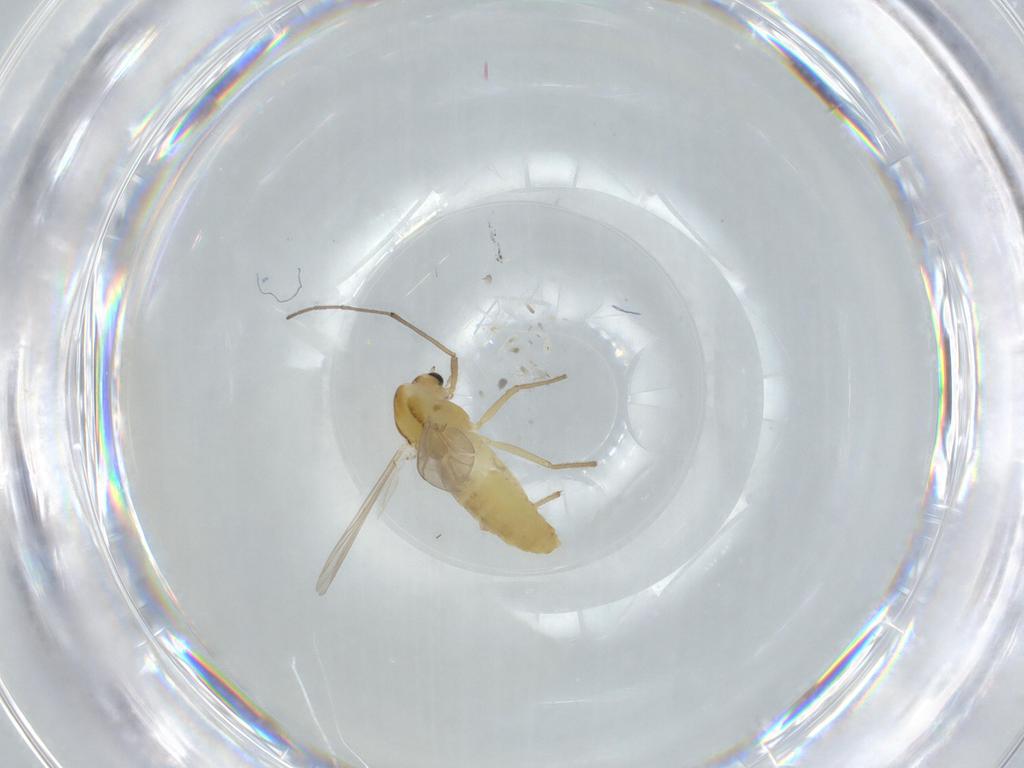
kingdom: Animalia
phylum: Arthropoda
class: Insecta
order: Diptera
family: Chironomidae
